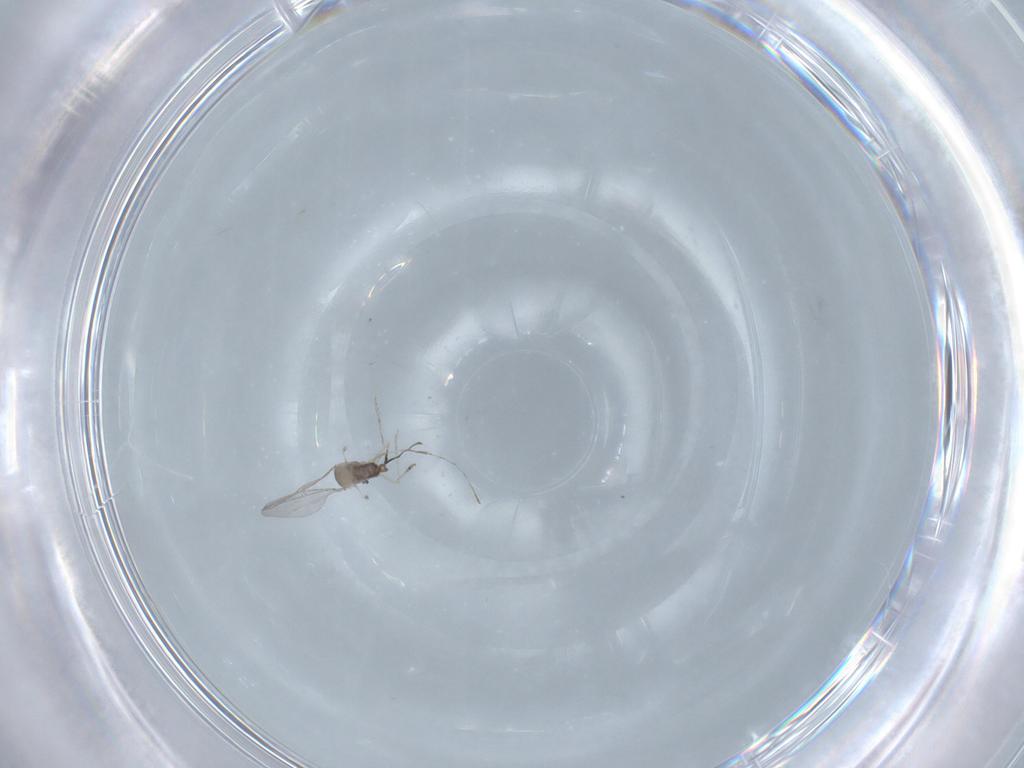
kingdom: Animalia
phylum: Arthropoda
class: Insecta
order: Diptera
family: Cecidomyiidae
